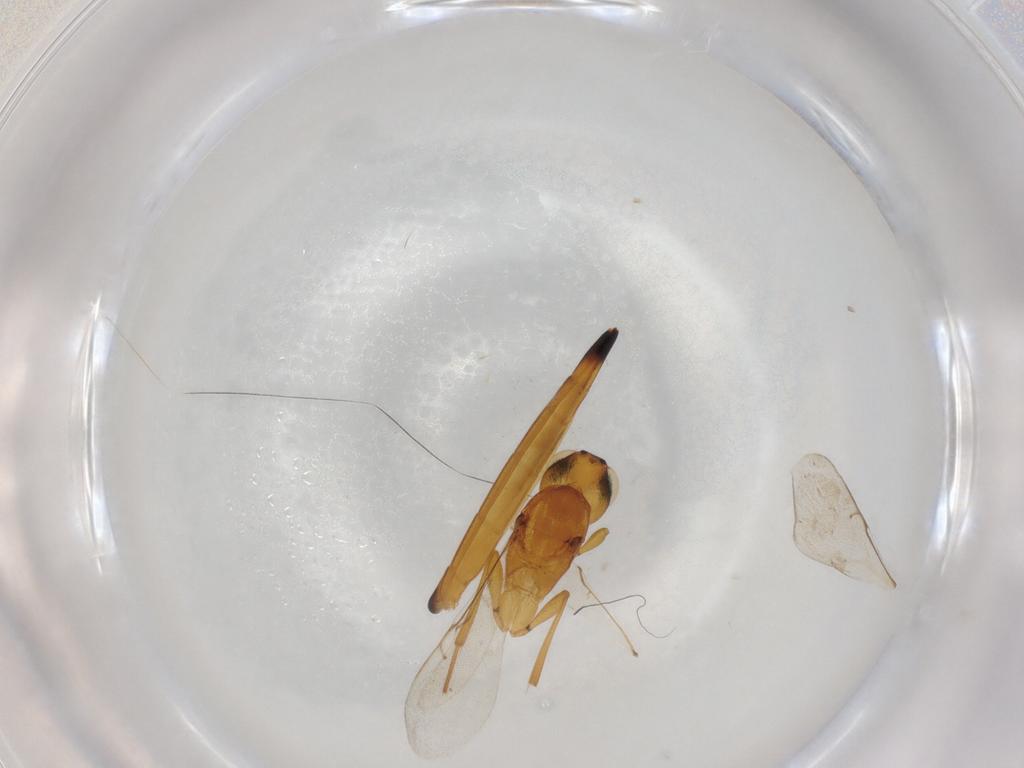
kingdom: Animalia
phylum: Arthropoda
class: Insecta
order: Hymenoptera
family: Scelionidae
